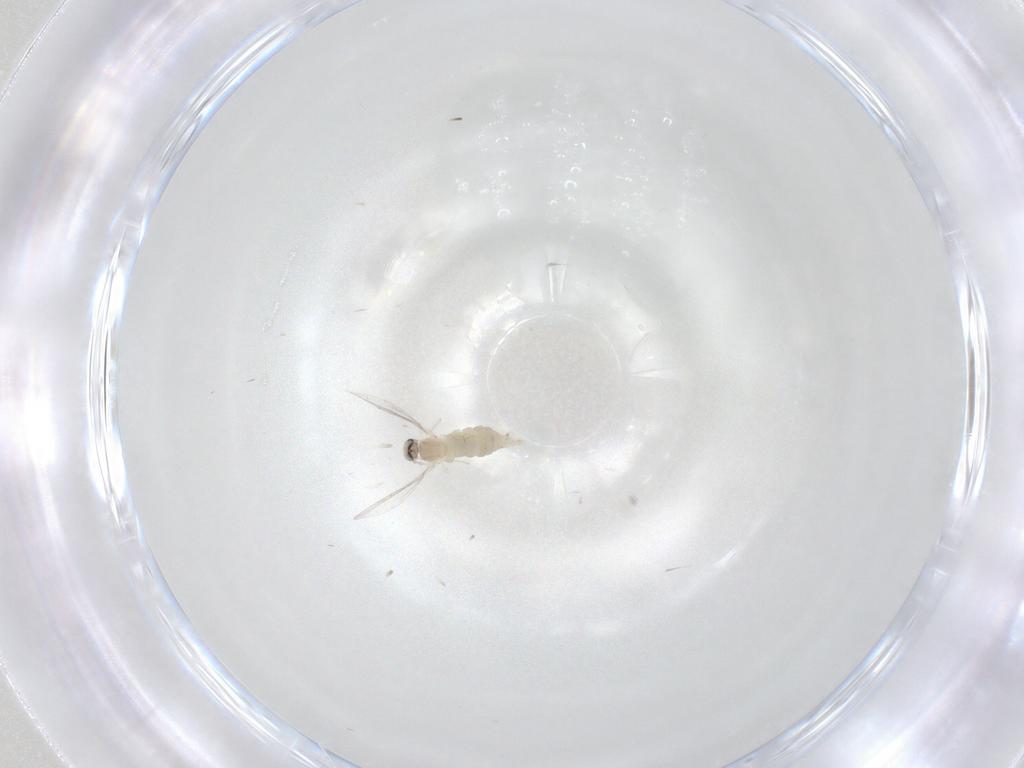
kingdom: Animalia
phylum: Arthropoda
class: Insecta
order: Diptera
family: Cecidomyiidae
